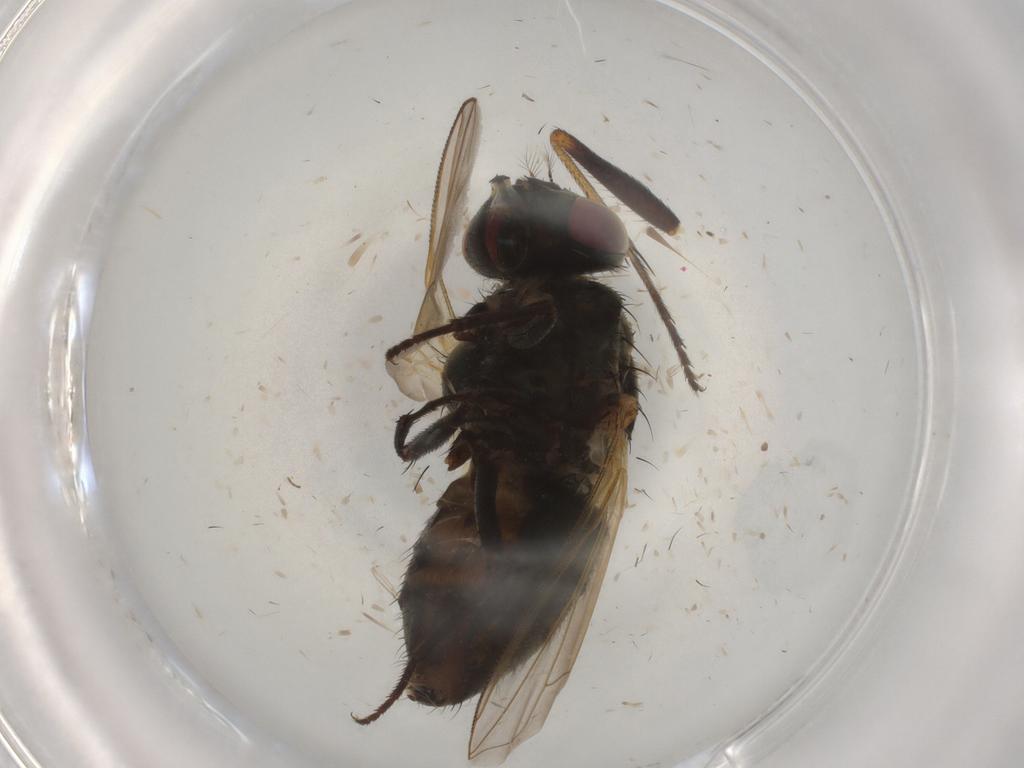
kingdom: Animalia
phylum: Arthropoda
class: Insecta
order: Diptera
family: Muscidae
